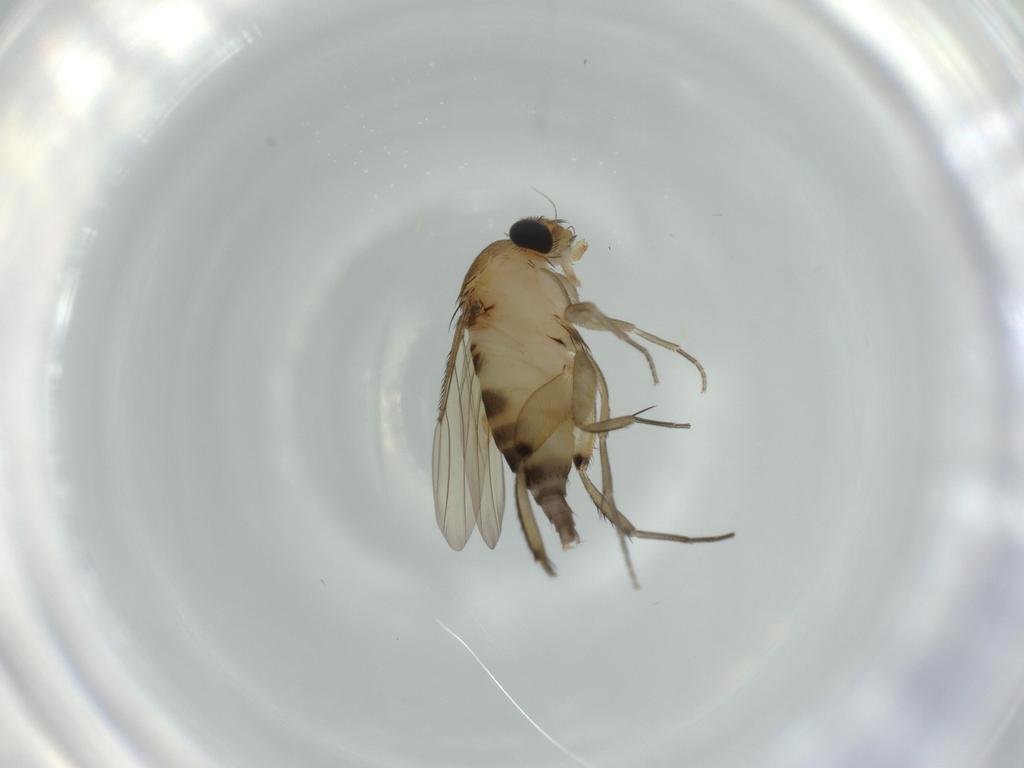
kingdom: Animalia
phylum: Arthropoda
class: Insecta
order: Diptera
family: Phoridae
